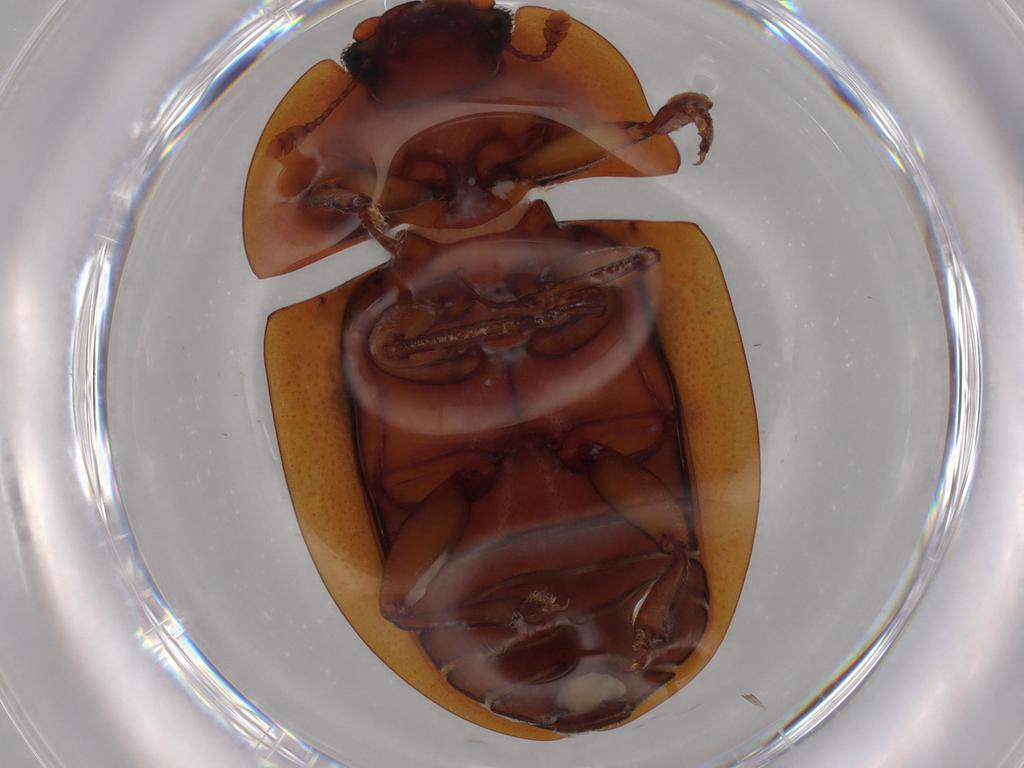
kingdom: Animalia
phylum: Arthropoda
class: Insecta
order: Coleoptera
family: Nitidulidae
